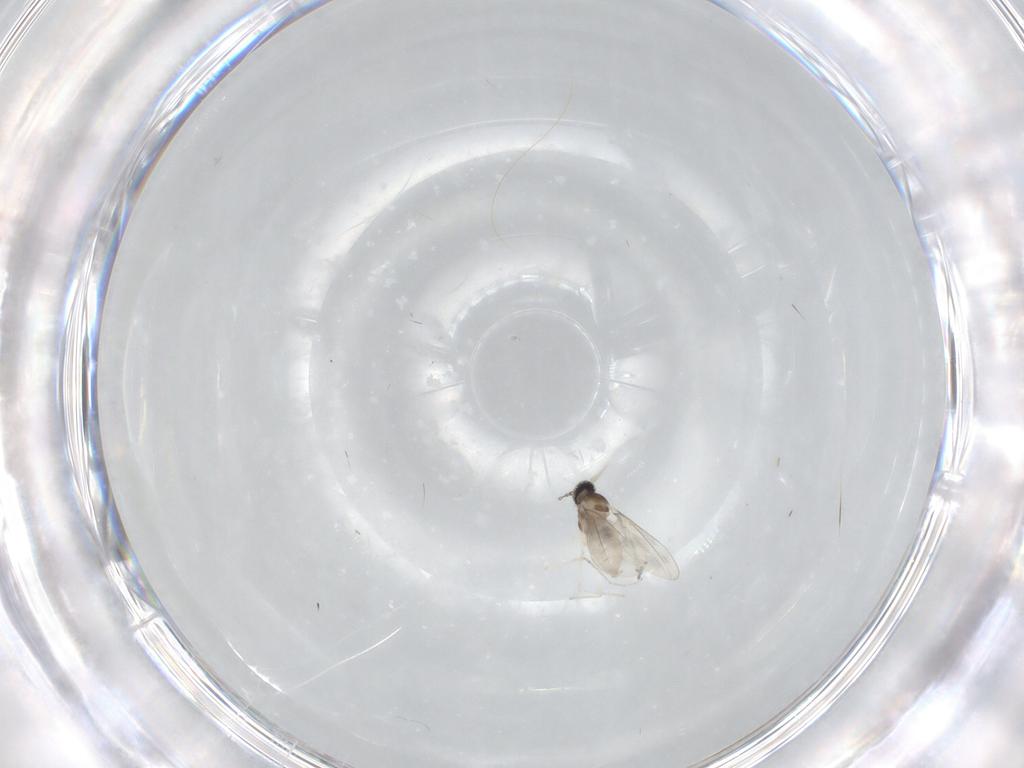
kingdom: Animalia
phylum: Arthropoda
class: Insecta
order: Diptera
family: Cecidomyiidae
